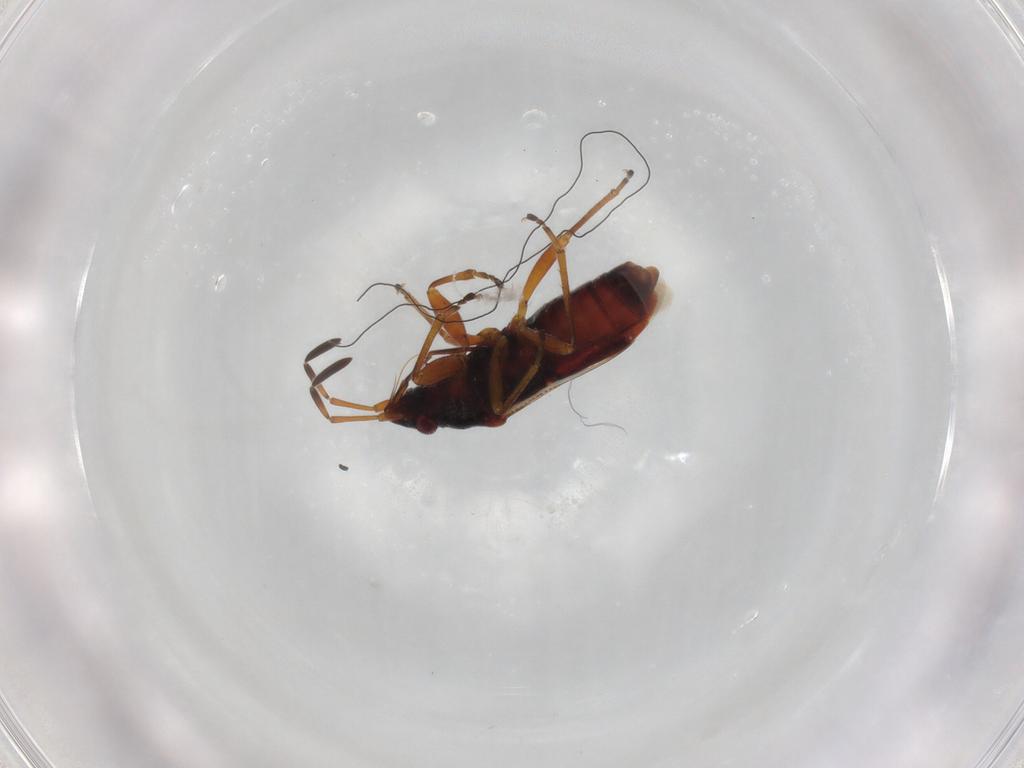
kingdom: Animalia
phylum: Arthropoda
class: Insecta
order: Hemiptera
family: Rhyparochromidae
